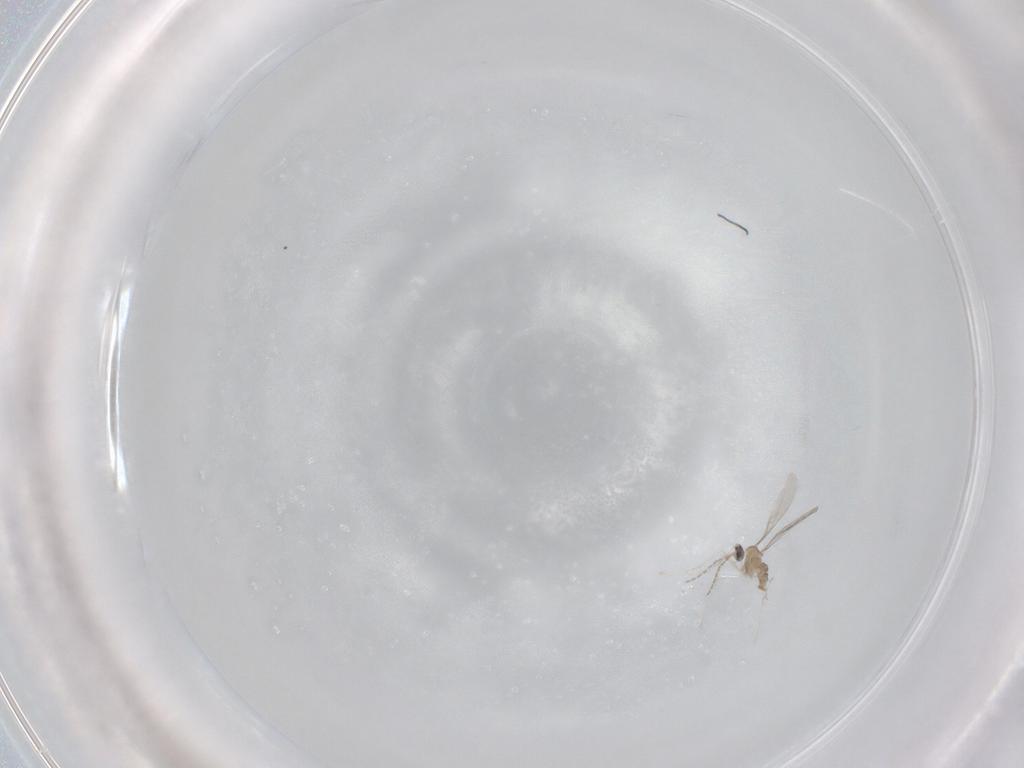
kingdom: Animalia
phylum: Arthropoda
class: Insecta
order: Diptera
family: Cecidomyiidae
